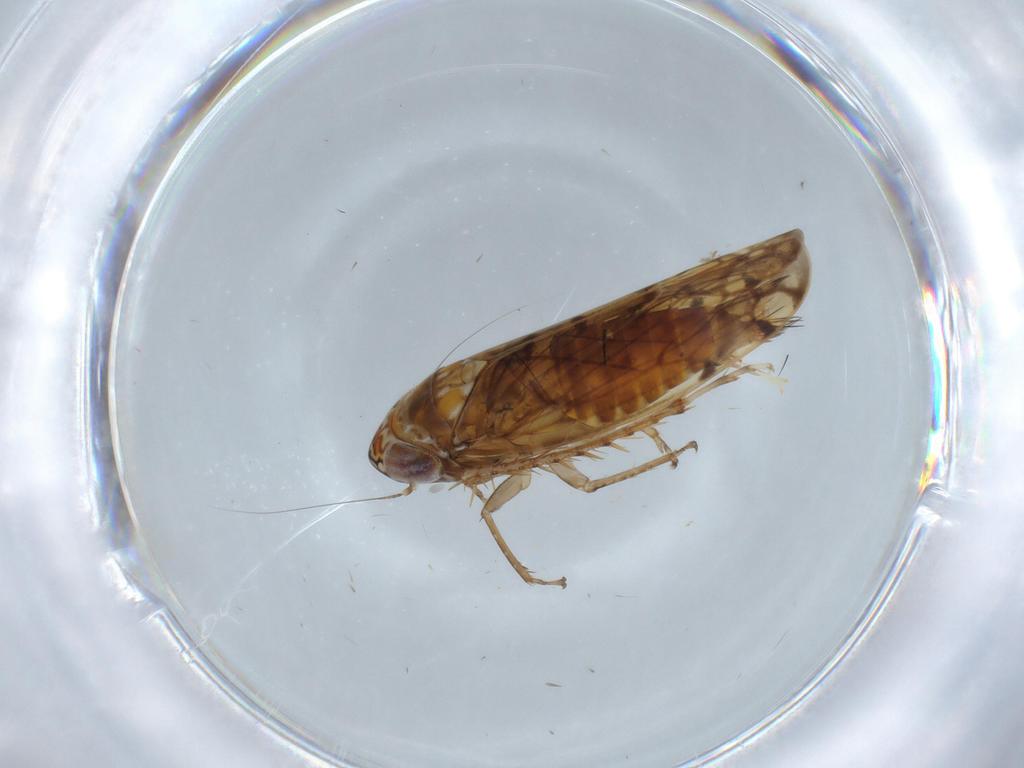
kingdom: Animalia
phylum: Arthropoda
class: Insecta
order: Hemiptera
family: Cicadellidae
